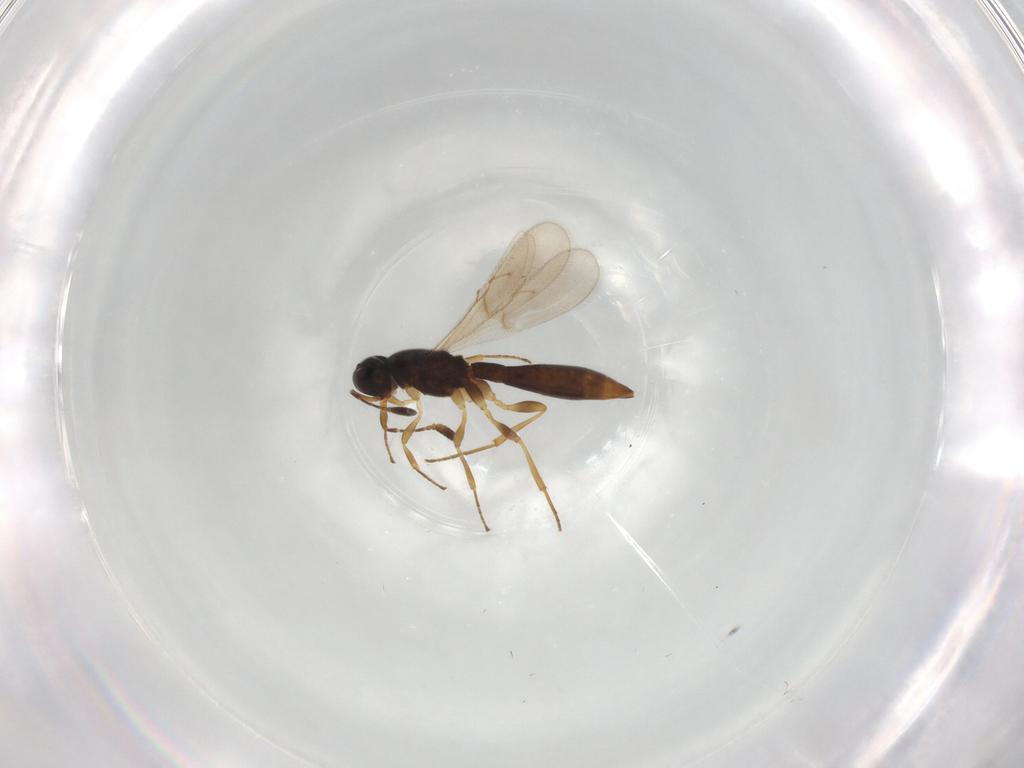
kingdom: Animalia
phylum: Arthropoda
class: Insecta
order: Hymenoptera
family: Scelionidae
